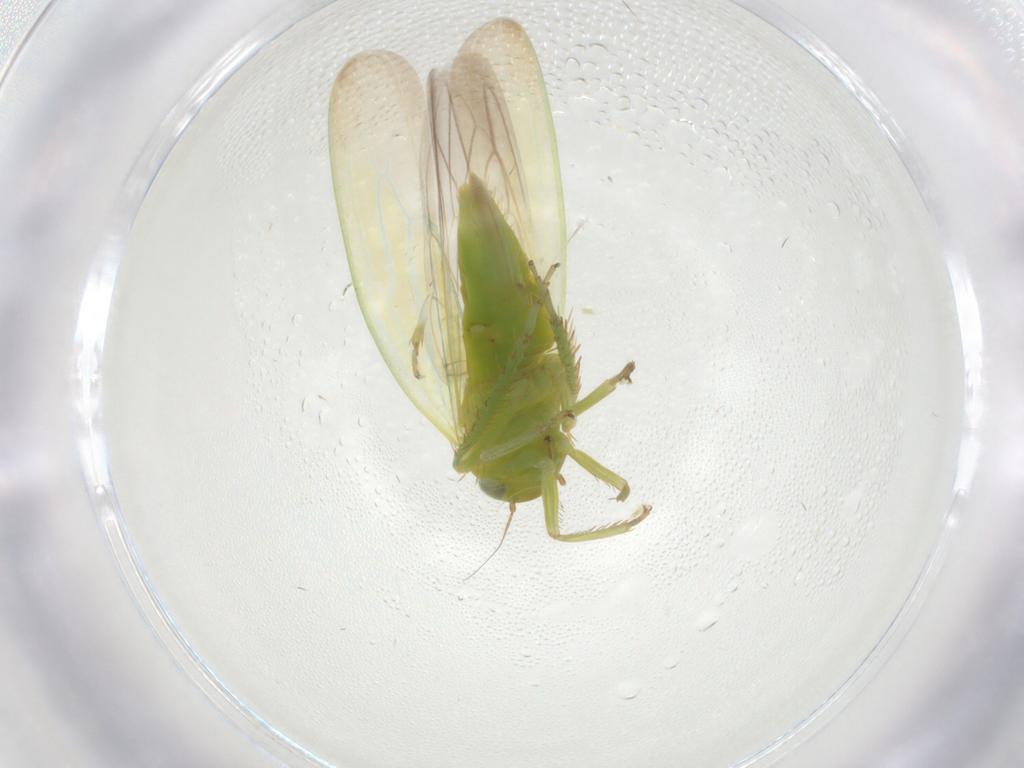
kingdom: Animalia
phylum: Arthropoda
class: Insecta
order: Hemiptera
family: Cicadellidae
